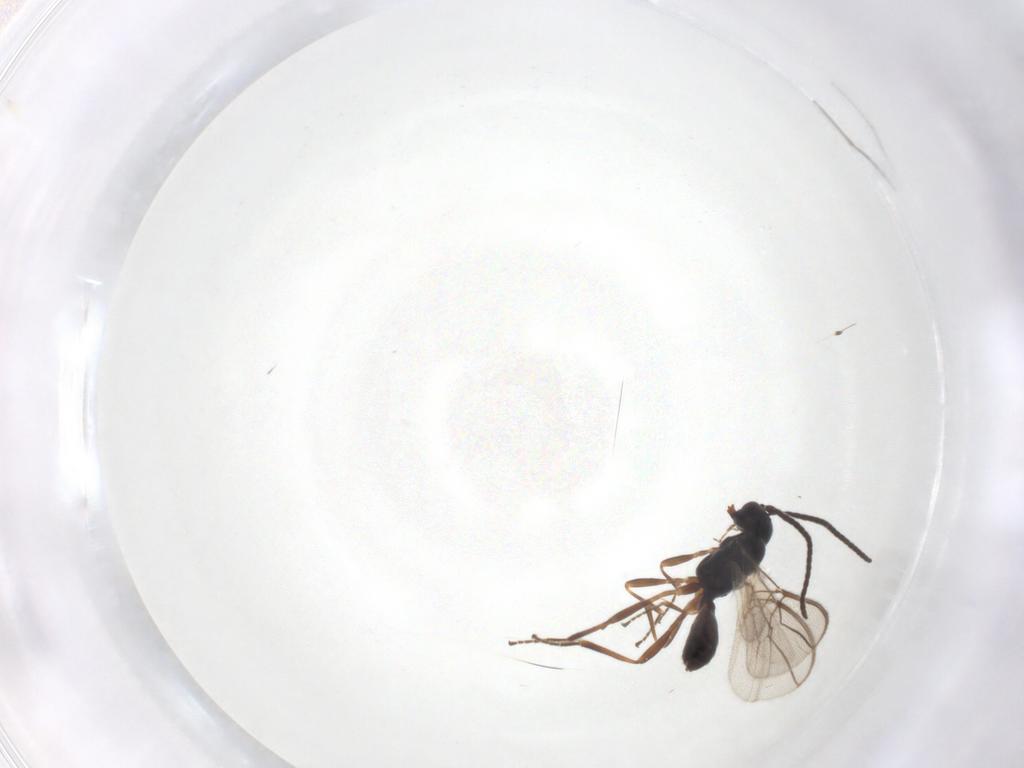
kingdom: Animalia
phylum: Arthropoda
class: Insecta
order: Hymenoptera
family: Braconidae
